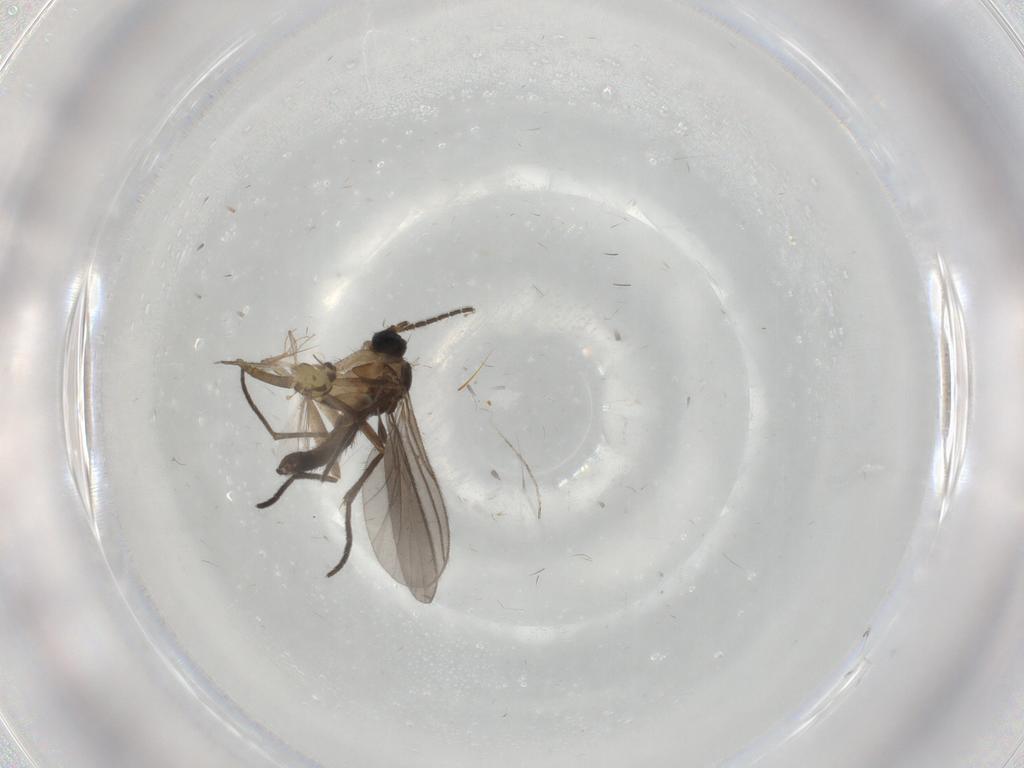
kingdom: Animalia
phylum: Arthropoda
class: Insecta
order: Diptera
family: Sciaridae
